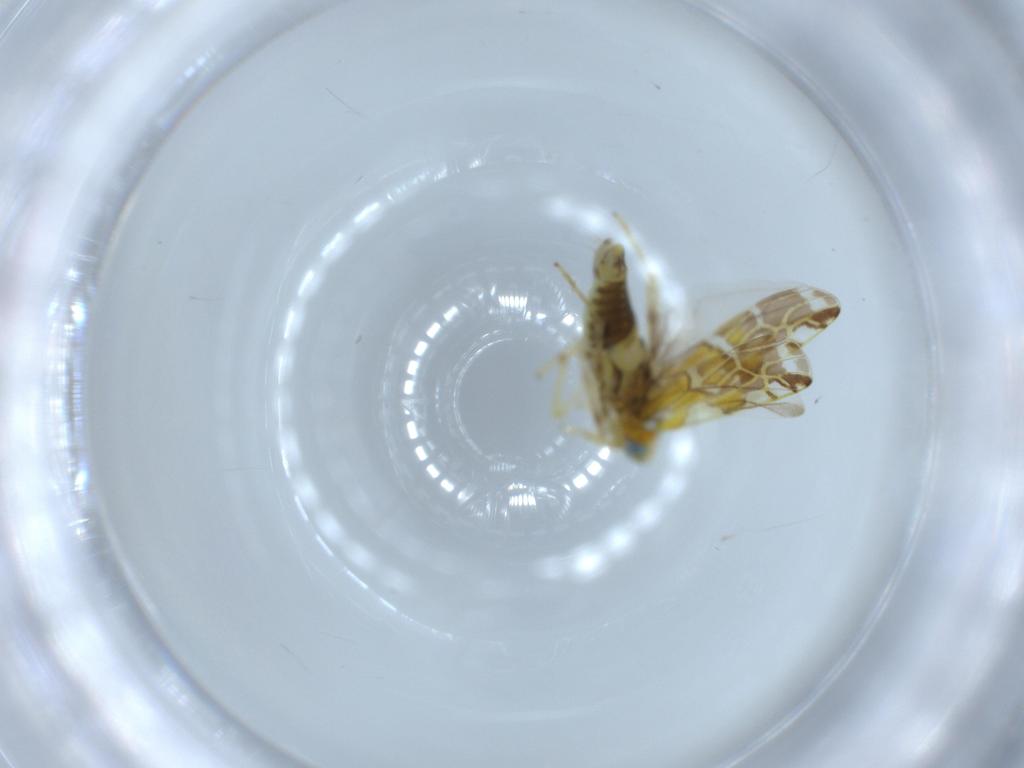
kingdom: Animalia
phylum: Arthropoda
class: Insecta
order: Hemiptera
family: Cicadellidae
